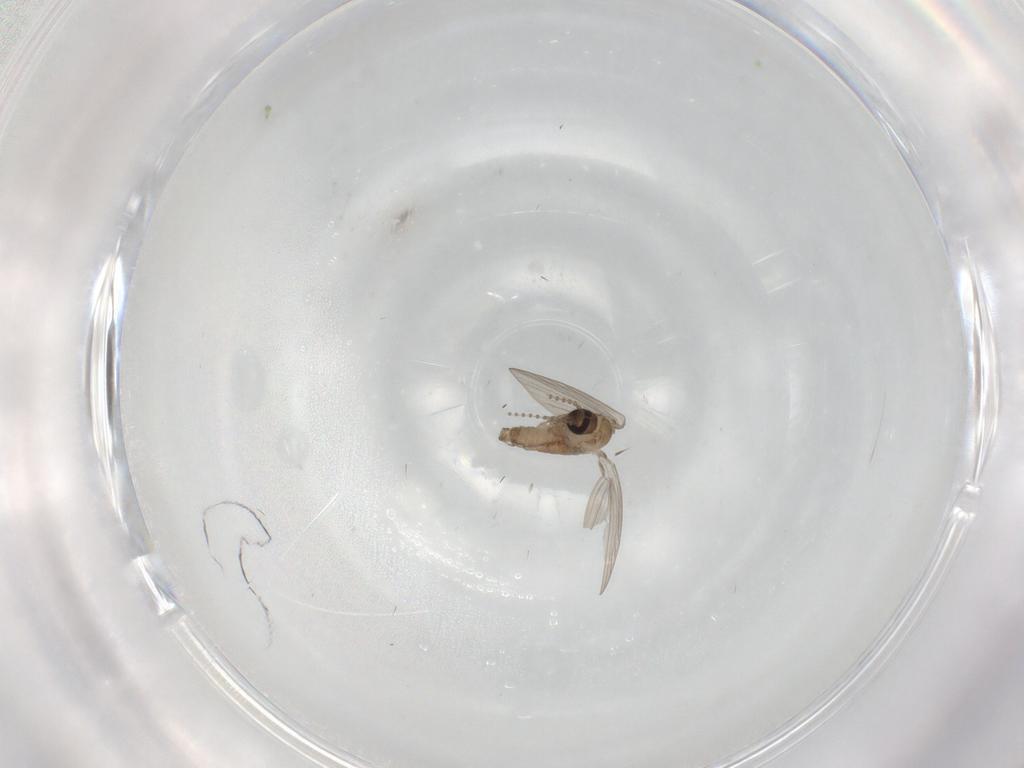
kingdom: Animalia
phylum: Arthropoda
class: Insecta
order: Diptera
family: Psychodidae
